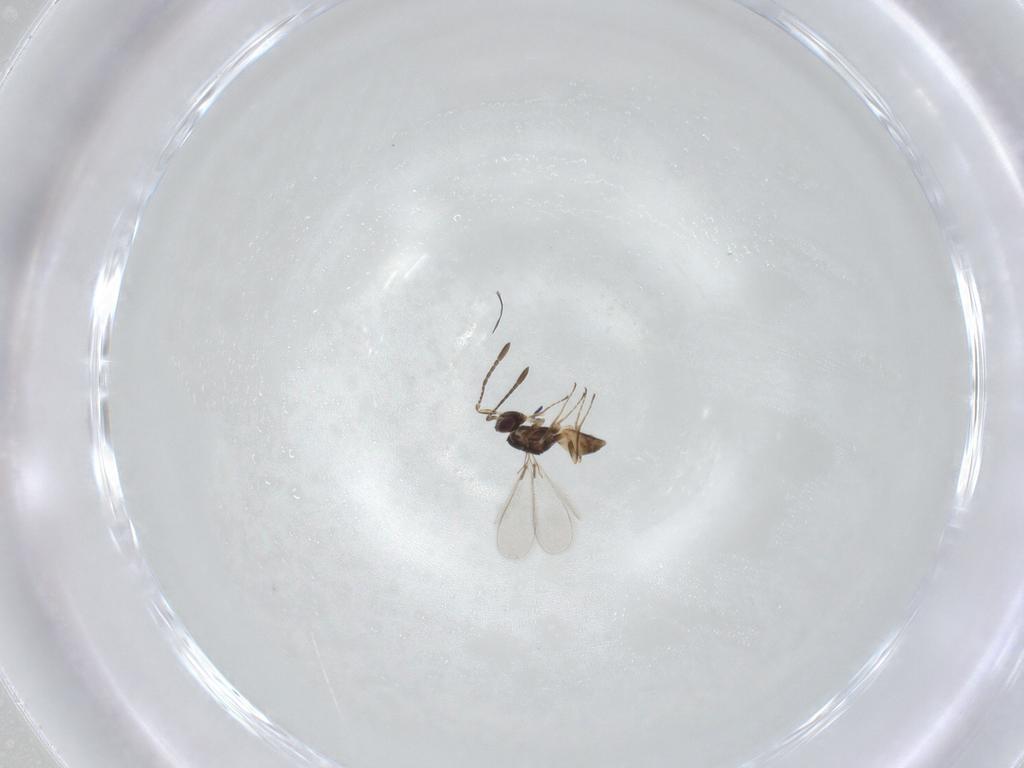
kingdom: Animalia
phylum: Arthropoda
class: Insecta
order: Hymenoptera
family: Mymaridae
